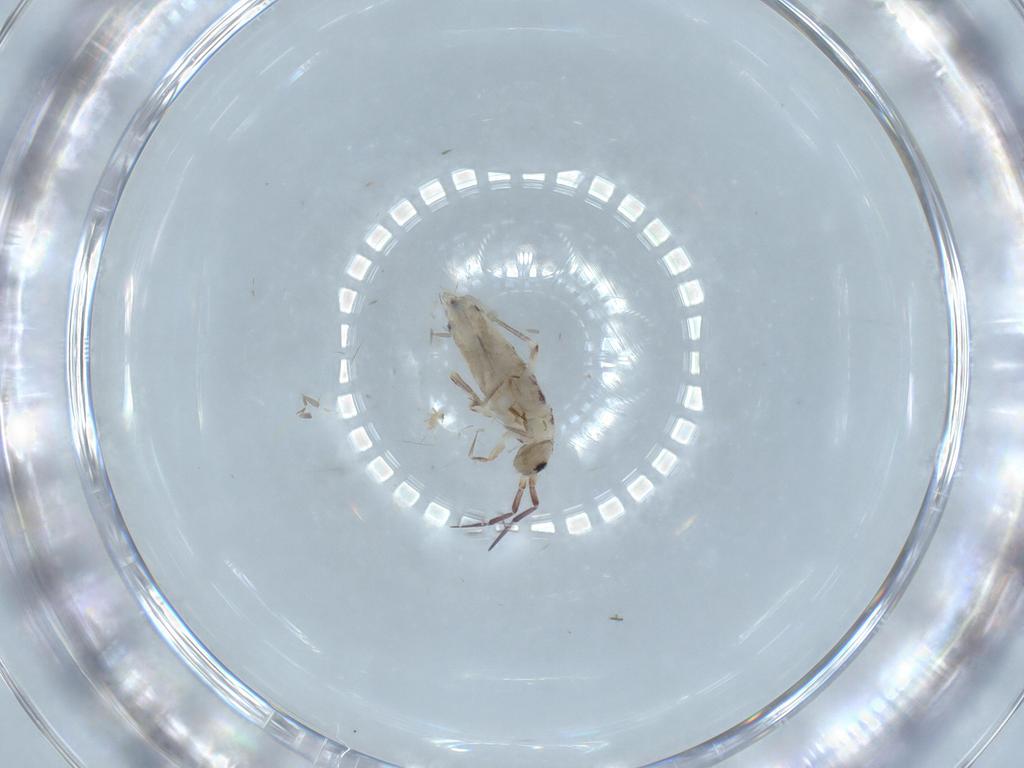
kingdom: Animalia
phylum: Arthropoda
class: Collembola
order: Entomobryomorpha
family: Entomobryidae
